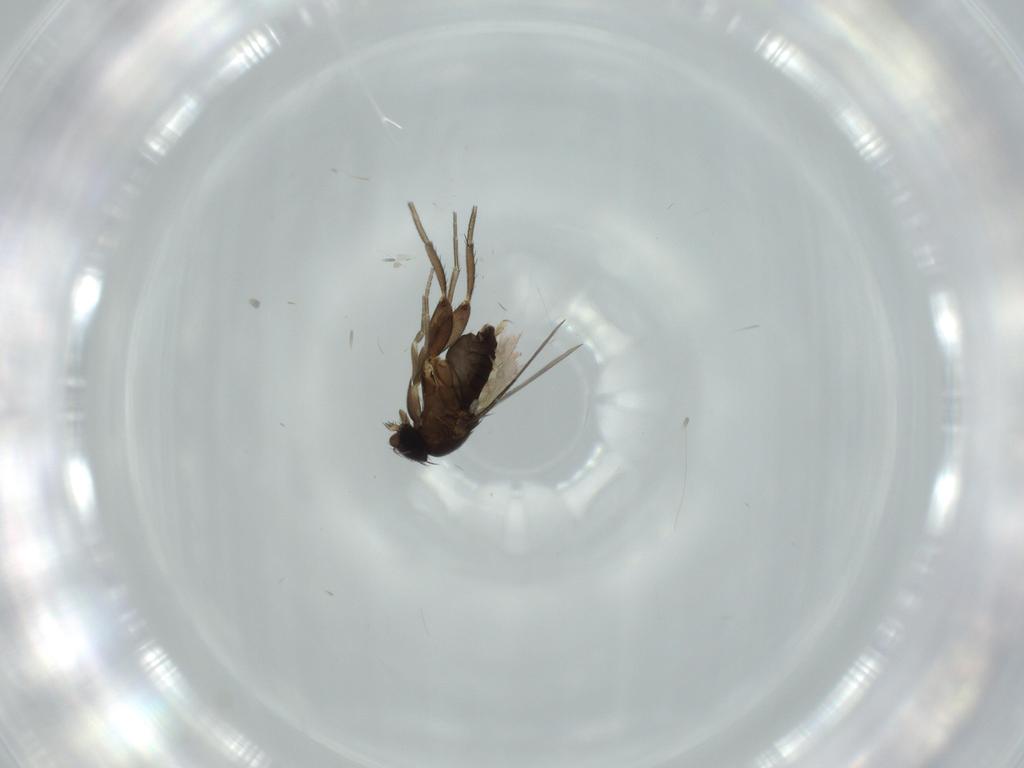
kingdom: Animalia
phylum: Arthropoda
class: Insecta
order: Diptera
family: Phoridae
